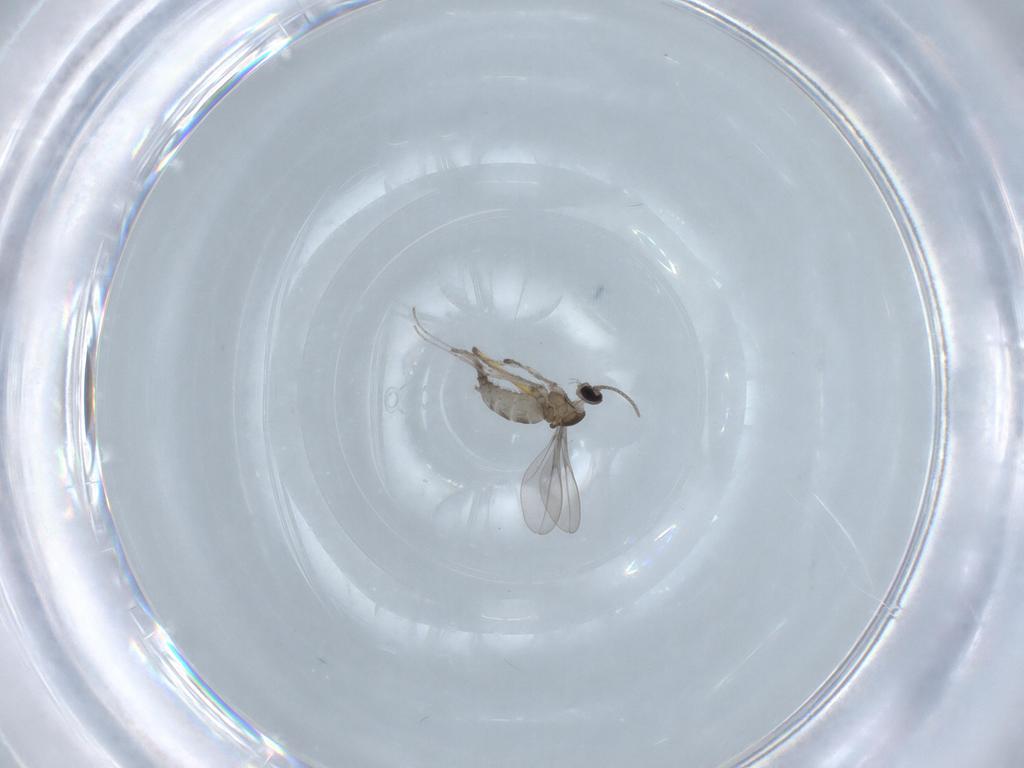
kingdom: Animalia
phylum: Arthropoda
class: Insecta
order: Diptera
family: Cecidomyiidae
